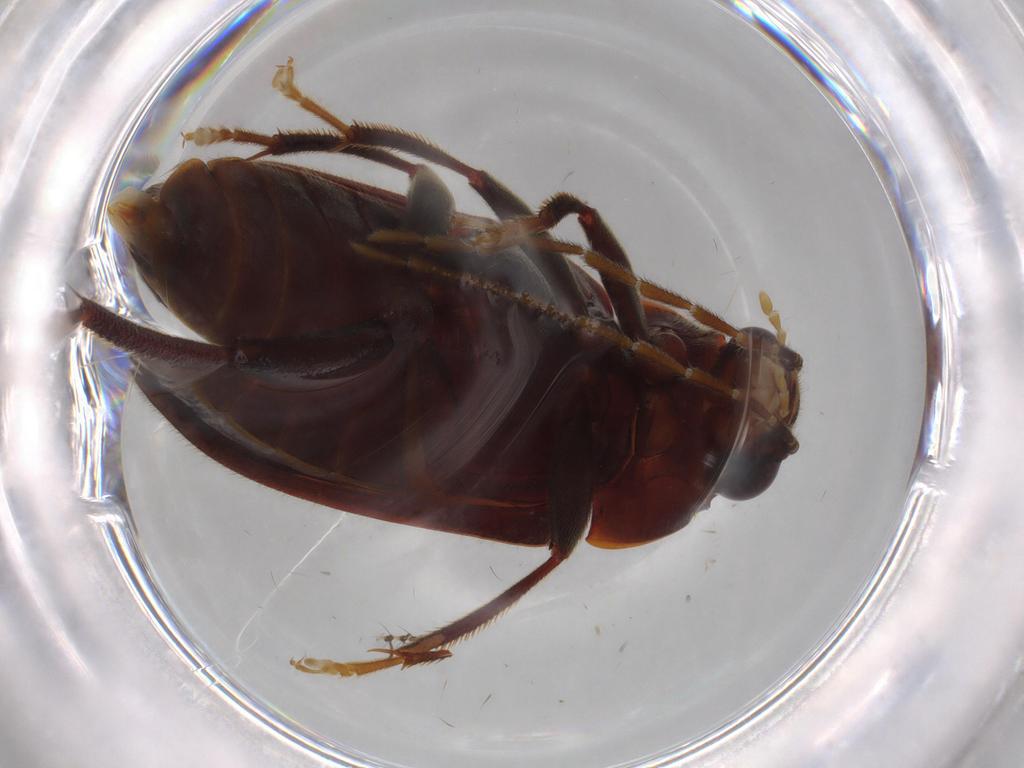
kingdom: Animalia
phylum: Arthropoda
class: Insecta
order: Coleoptera
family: Ptilodactylidae
